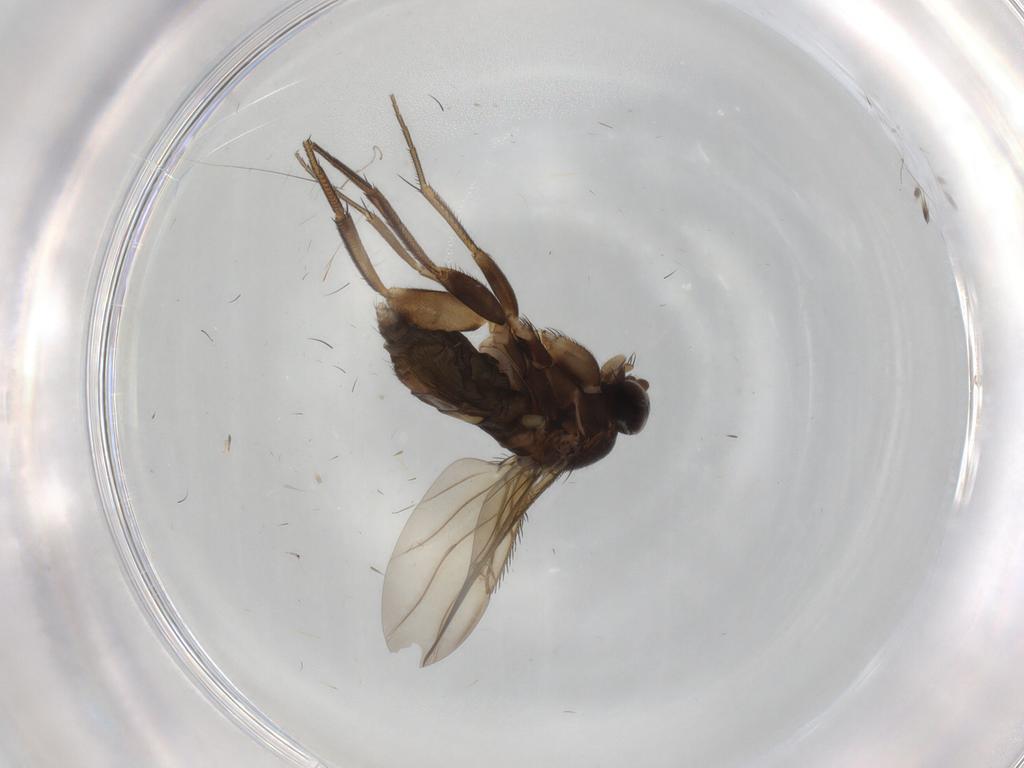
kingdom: Animalia
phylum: Arthropoda
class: Insecta
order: Diptera
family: Phoridae
